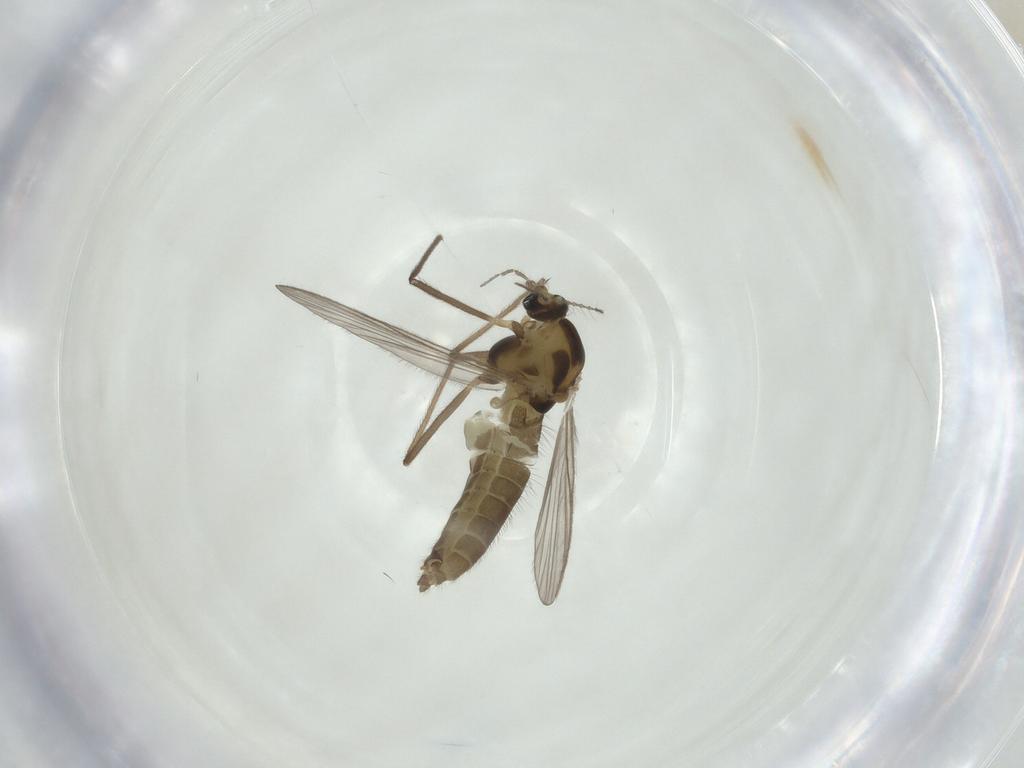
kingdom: Animalia
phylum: Arthropoda
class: Insecta
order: Diptera
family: Chironomidae
